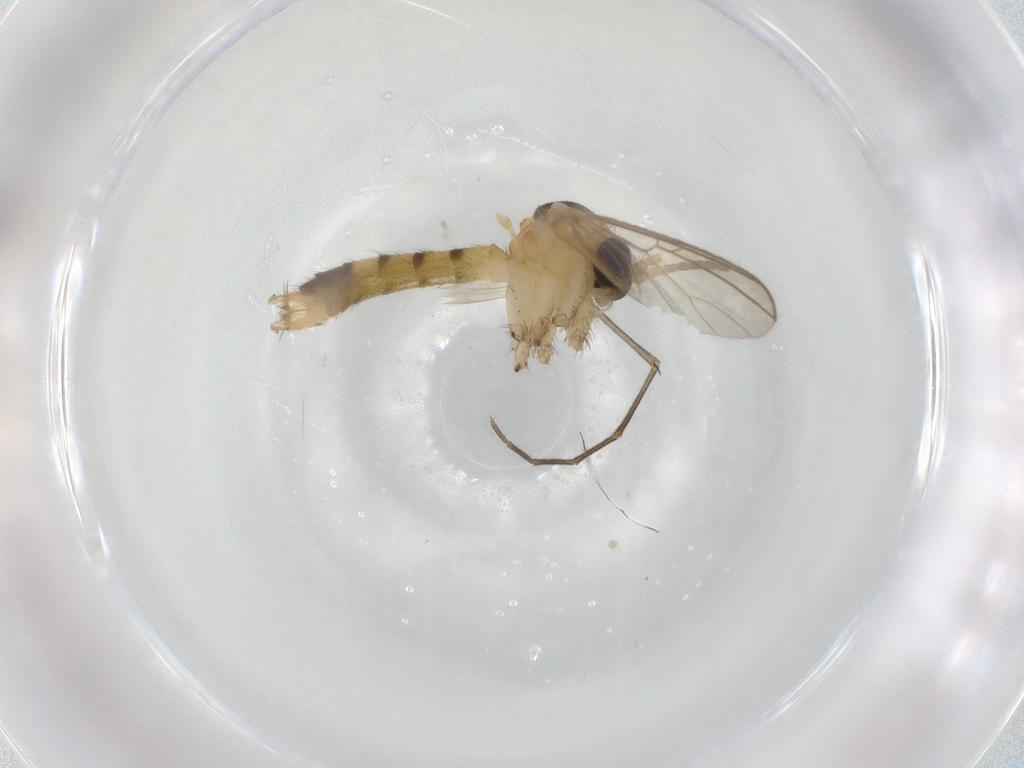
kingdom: Animalia
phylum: Arthropoda
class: Insecta
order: Diptera
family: Mycetophilidae
